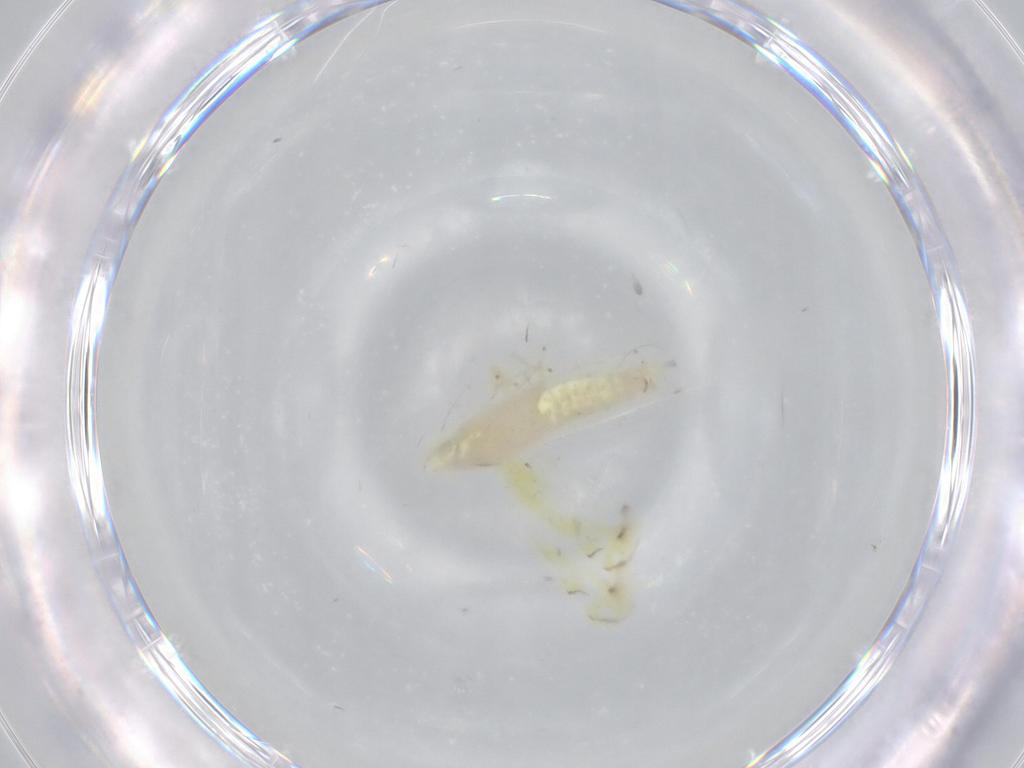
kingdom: Animalia
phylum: Arthropoda
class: Insecta
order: Hemiptera
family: Cicadellidae
